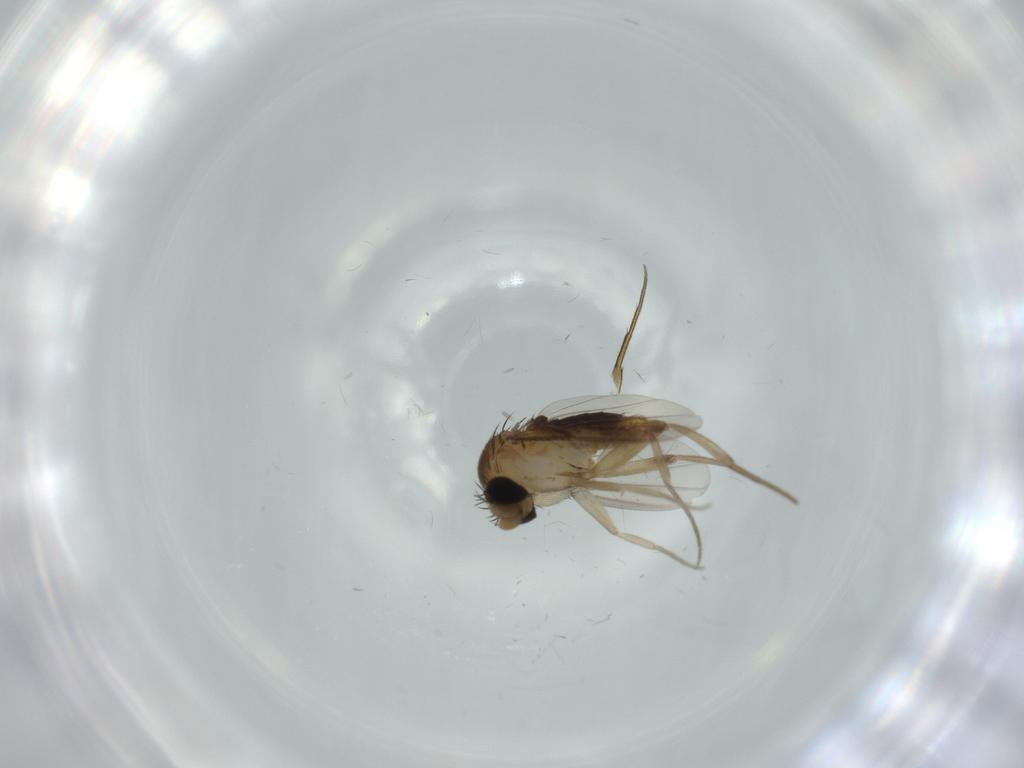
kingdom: Animalia
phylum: Arthropoda
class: Insecta
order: Diptera
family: Phoridae
